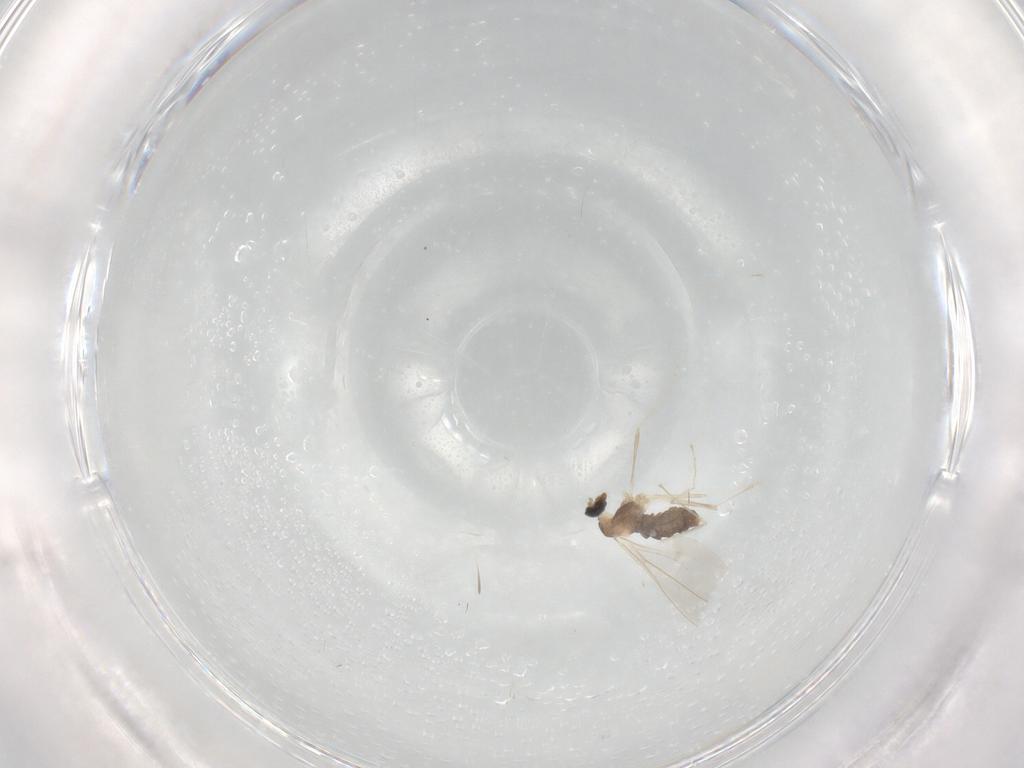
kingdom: Animalia
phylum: Arthropoda
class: Insecta
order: Diptera
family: Cecidomyiidae
